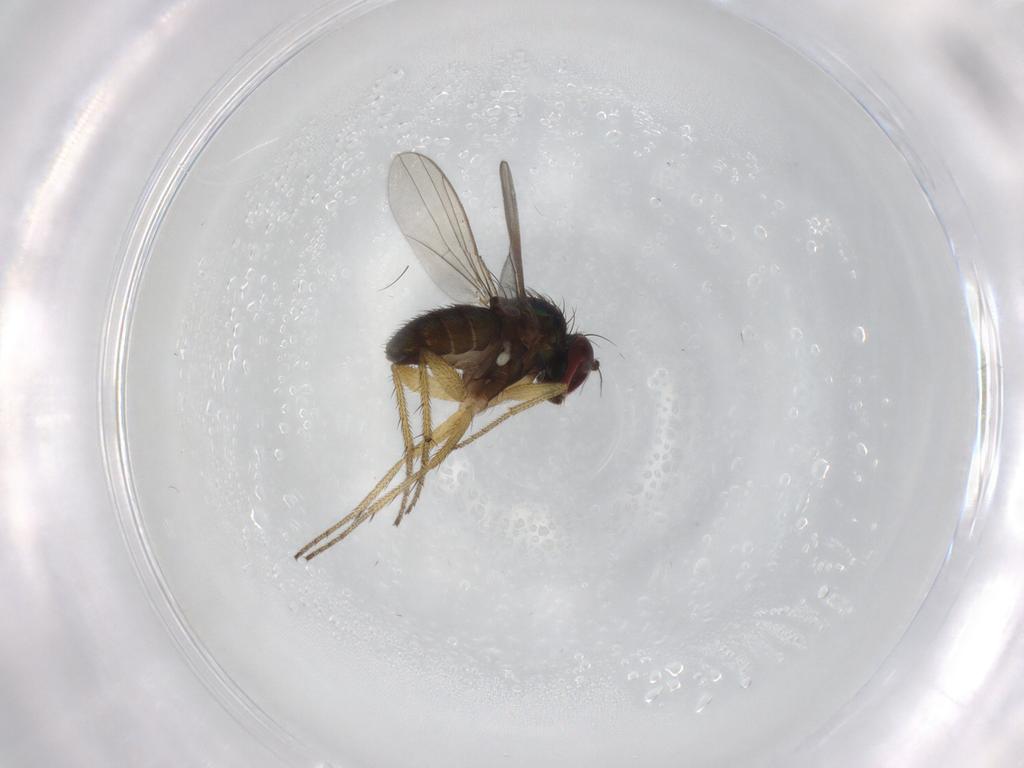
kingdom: Animalia
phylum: Arthropoda
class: Insecta
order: Diptera
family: Dolichopodidae
